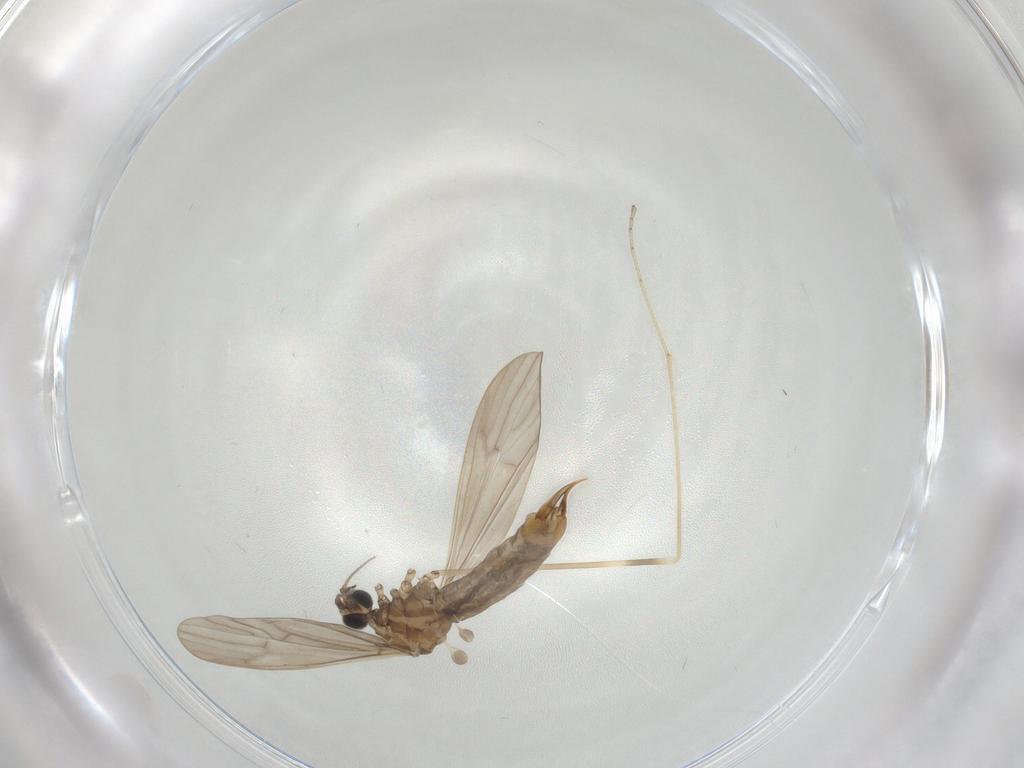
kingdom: Animalia
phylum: Arthropoda
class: Insecta
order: Diptera
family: Limoniidae
